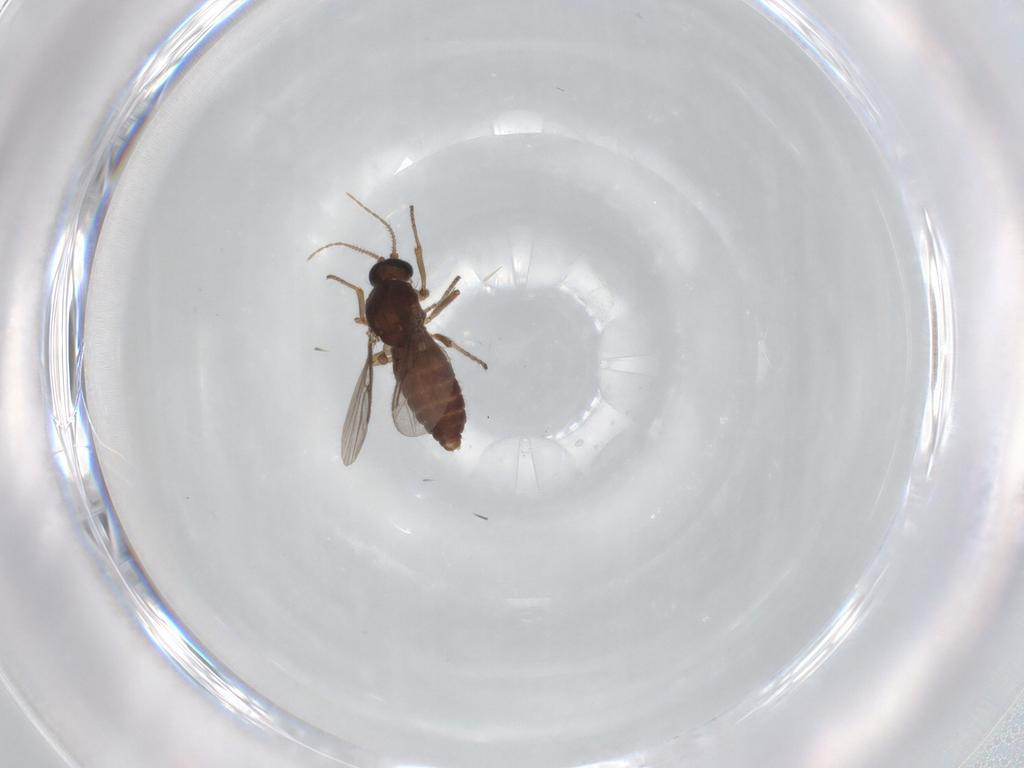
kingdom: Animalia
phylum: Arthropoda
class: Insecta
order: Diptera
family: Ceratopogonidae
